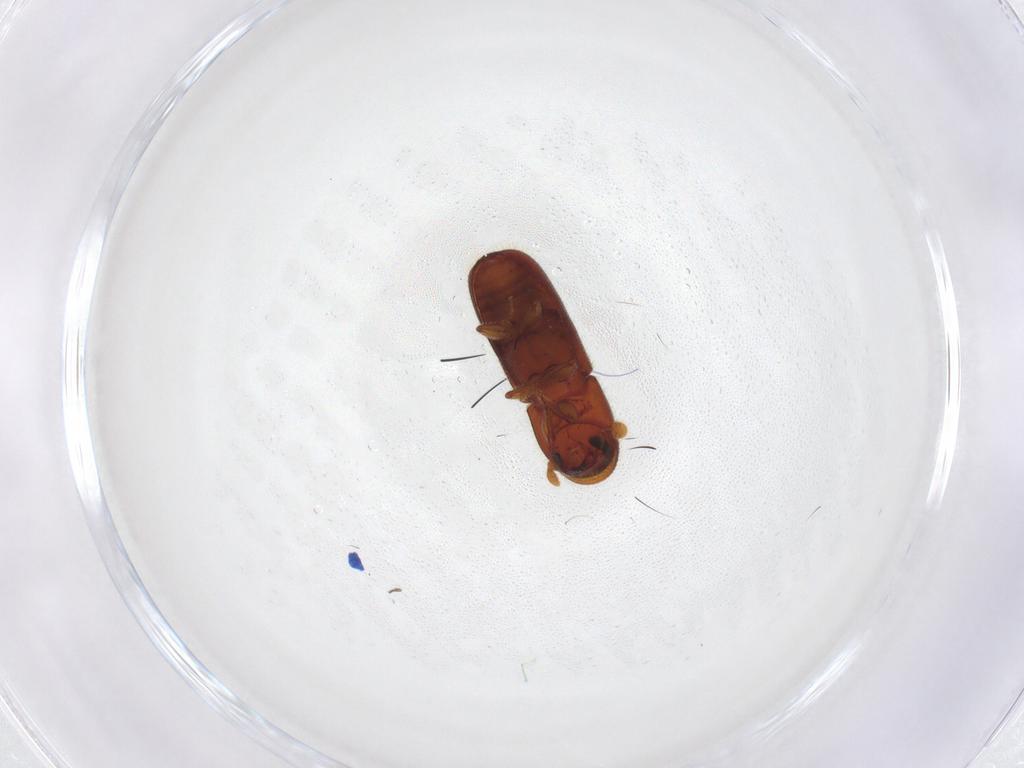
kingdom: Animalia
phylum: Arthropoda
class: Insecta
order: Coleoptera
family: Curculionidae
